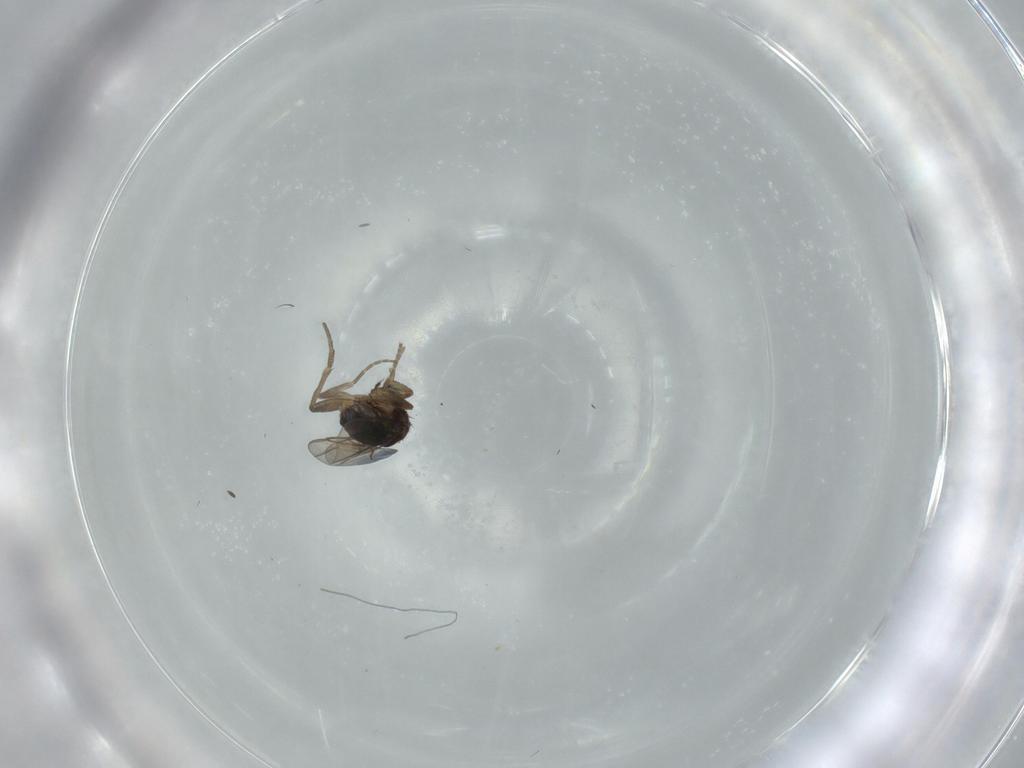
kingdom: Animalia
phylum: Arthropoda
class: Insecta
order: Diptera
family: Phoridae
